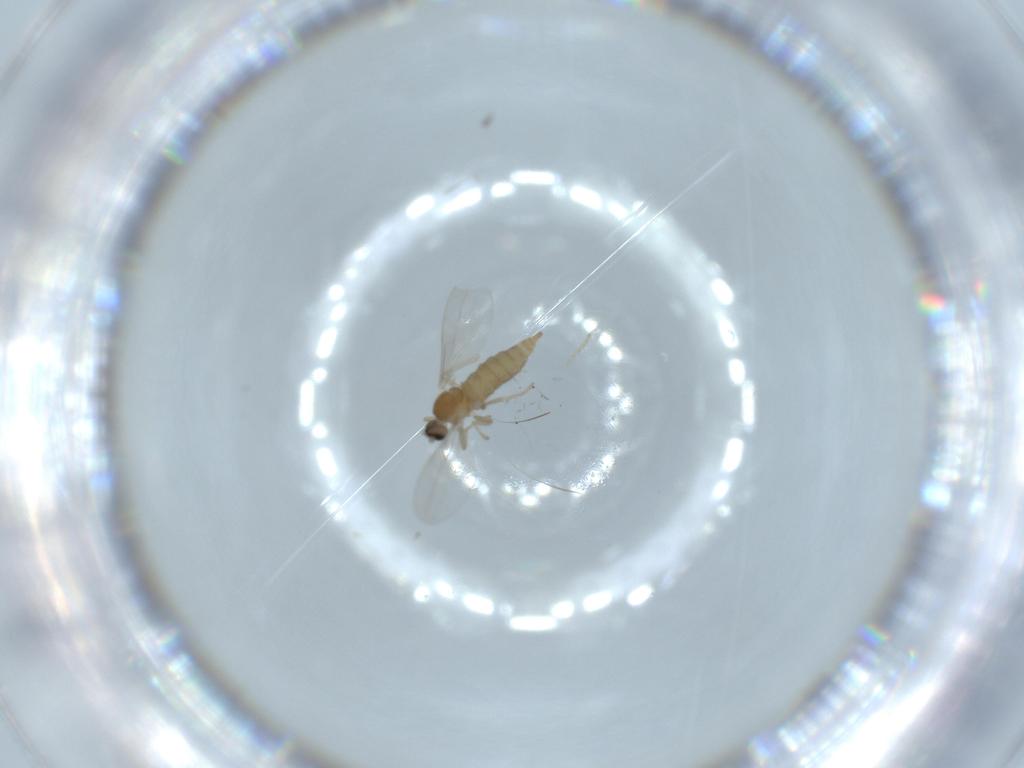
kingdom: Animalia
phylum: Arthropoda
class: Insecta
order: Diptera
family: Cecidomyiidae
